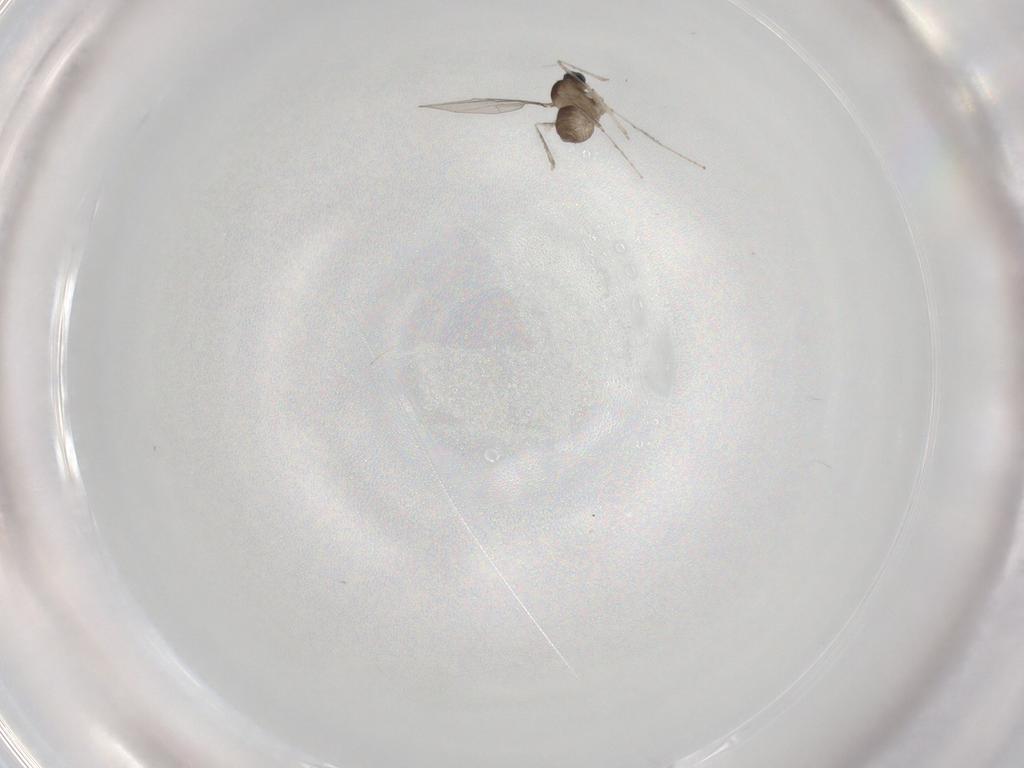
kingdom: Animalia
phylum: Arthropoda
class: Insecta
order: Diptera
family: Cecidomyiidae
